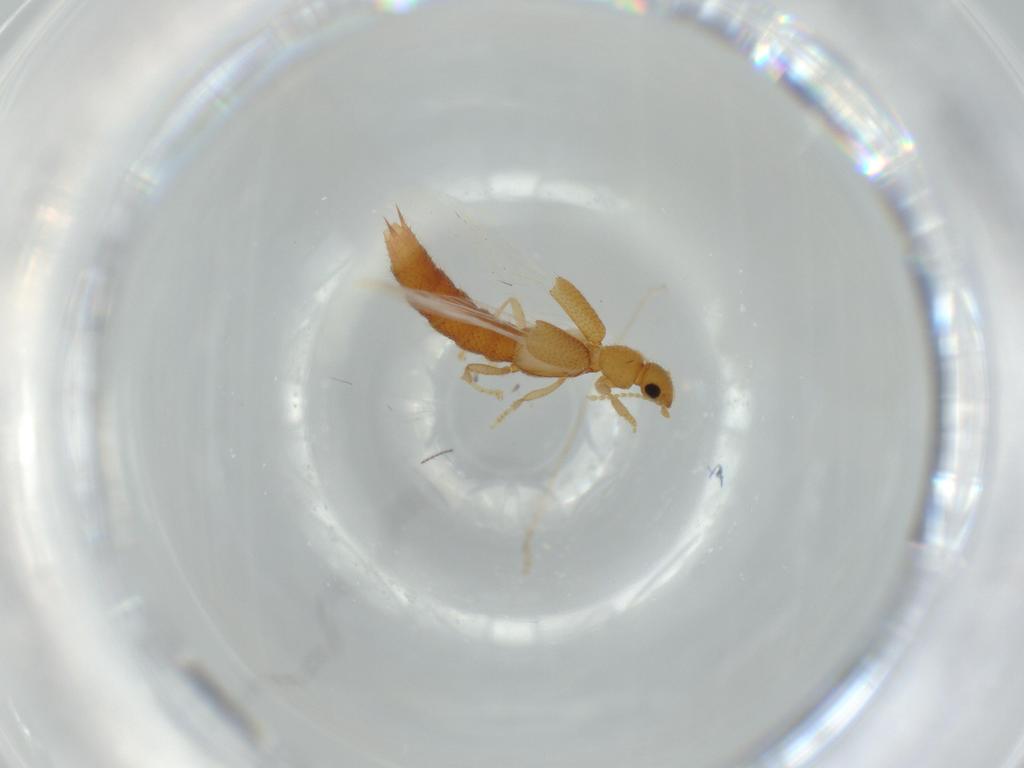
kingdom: Animalia
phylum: Arthropoda
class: Insecta
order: Coleoptera
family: Staphylinidae
